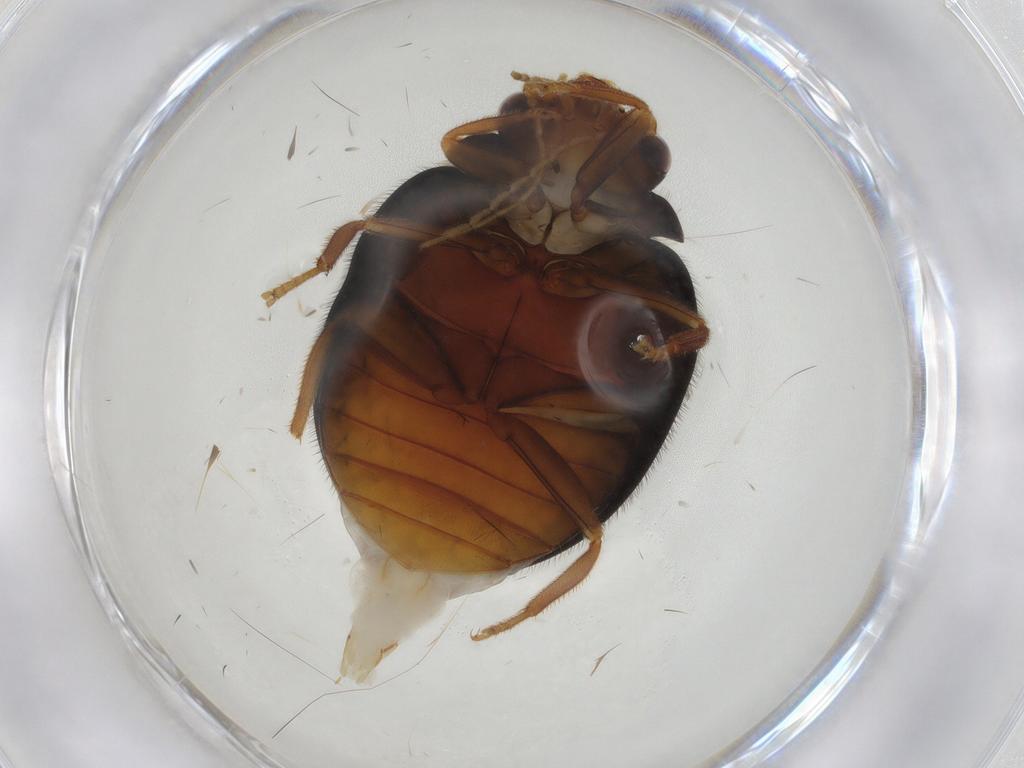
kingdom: Animalia
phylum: Arthropoda
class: Insecta
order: Coleoptera
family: Scirtidae
